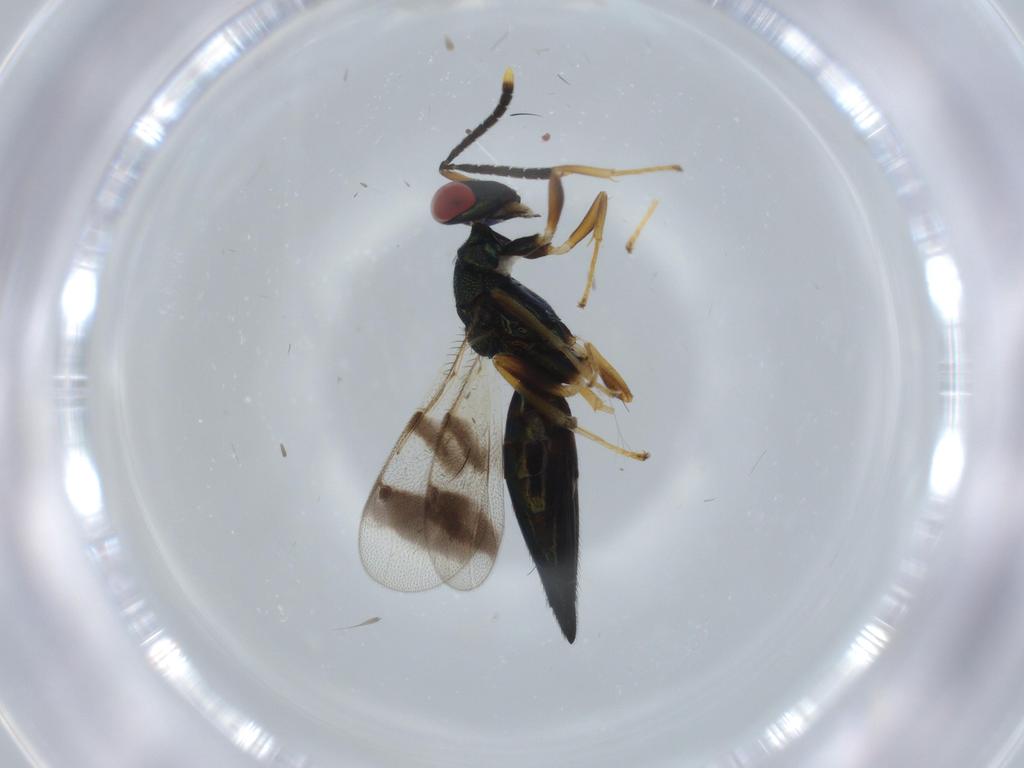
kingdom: Animalia
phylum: Arthropoda
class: Insecta
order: Hymenoptera
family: Pteromalidae
